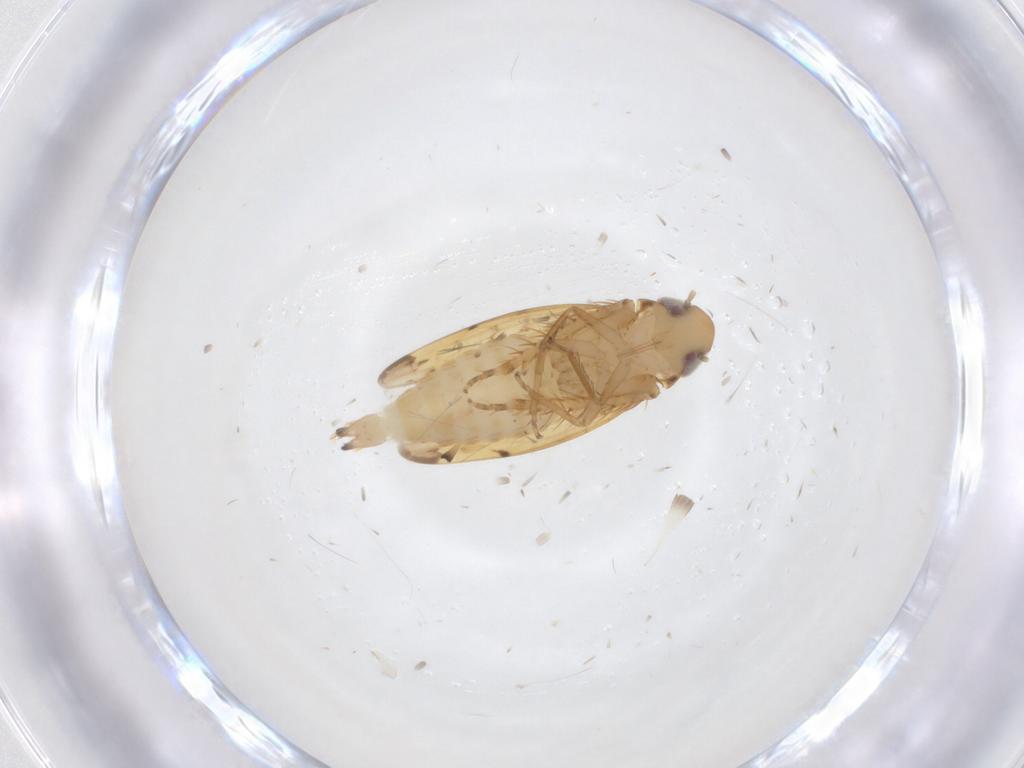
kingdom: Animalia
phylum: Arthropoda
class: Insecta
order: Hemiptera
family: Cicadellidae
